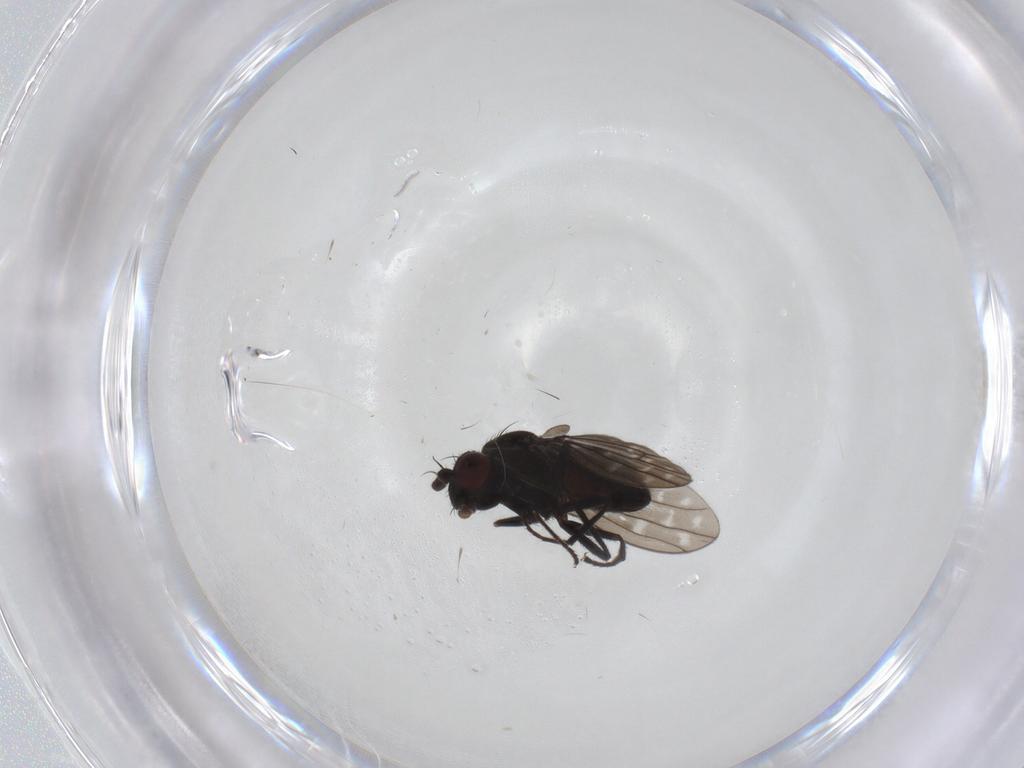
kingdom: Animalia
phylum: Arthropoda
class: Insecta
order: Diptera
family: Ephydridae
